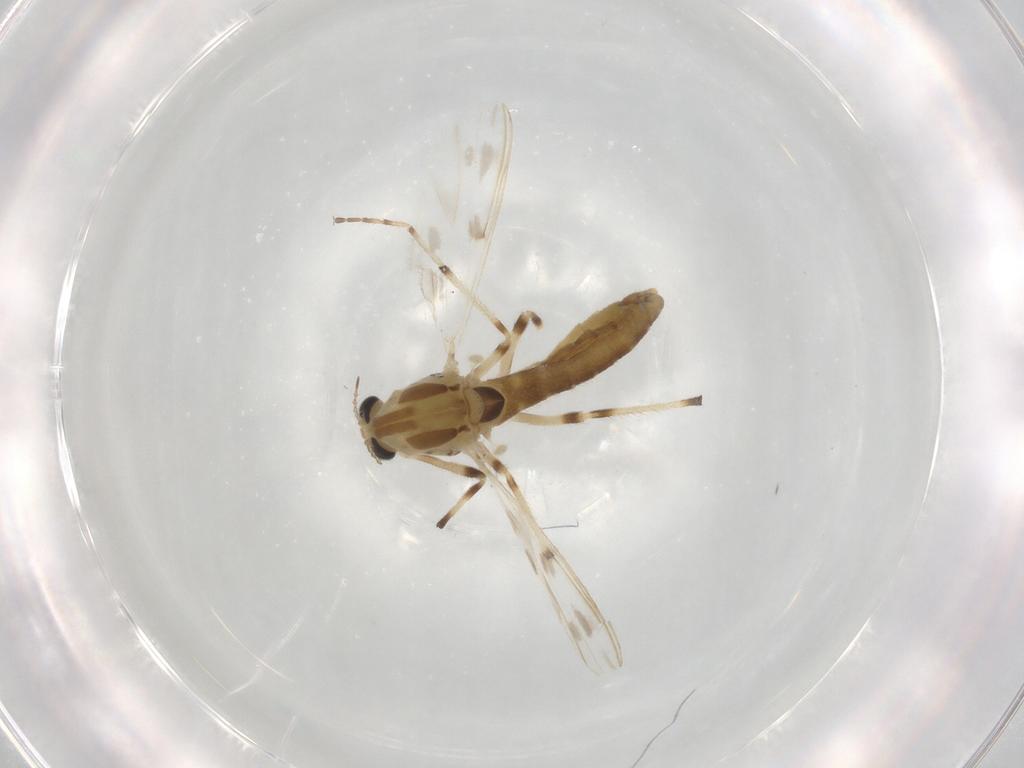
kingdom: Animalia
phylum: Arthropoda
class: Insecta
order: Diptera
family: Chironomidae
